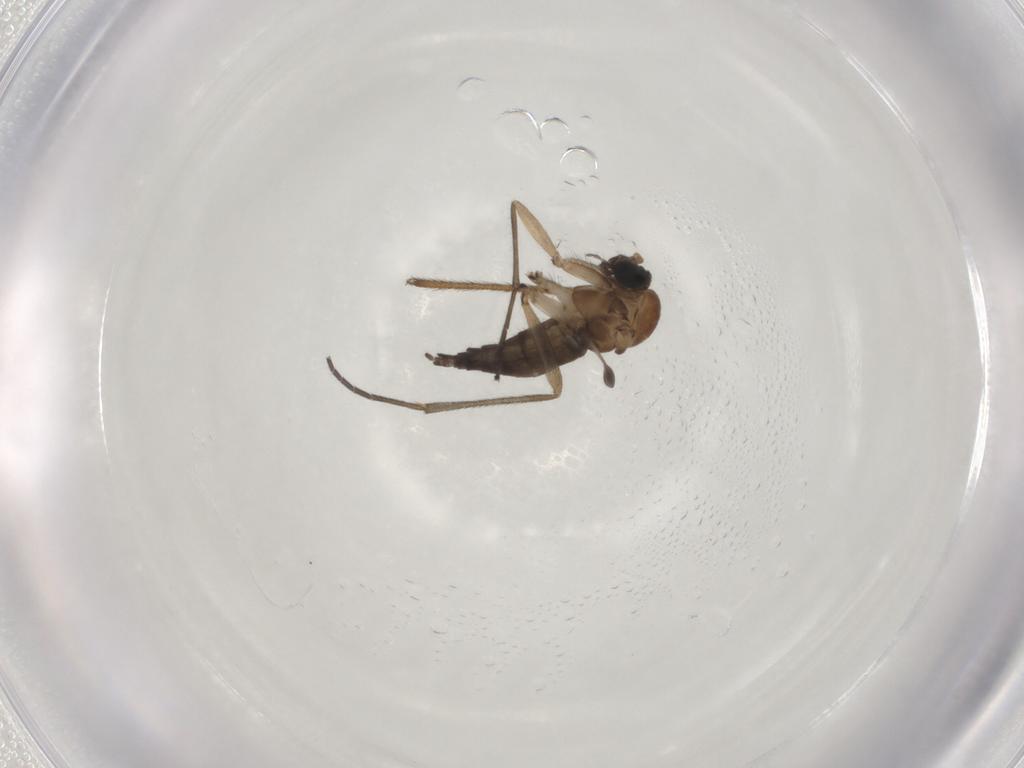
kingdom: Animalia
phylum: Arthropoda
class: Insecta
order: Diptera
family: Sciaridae
